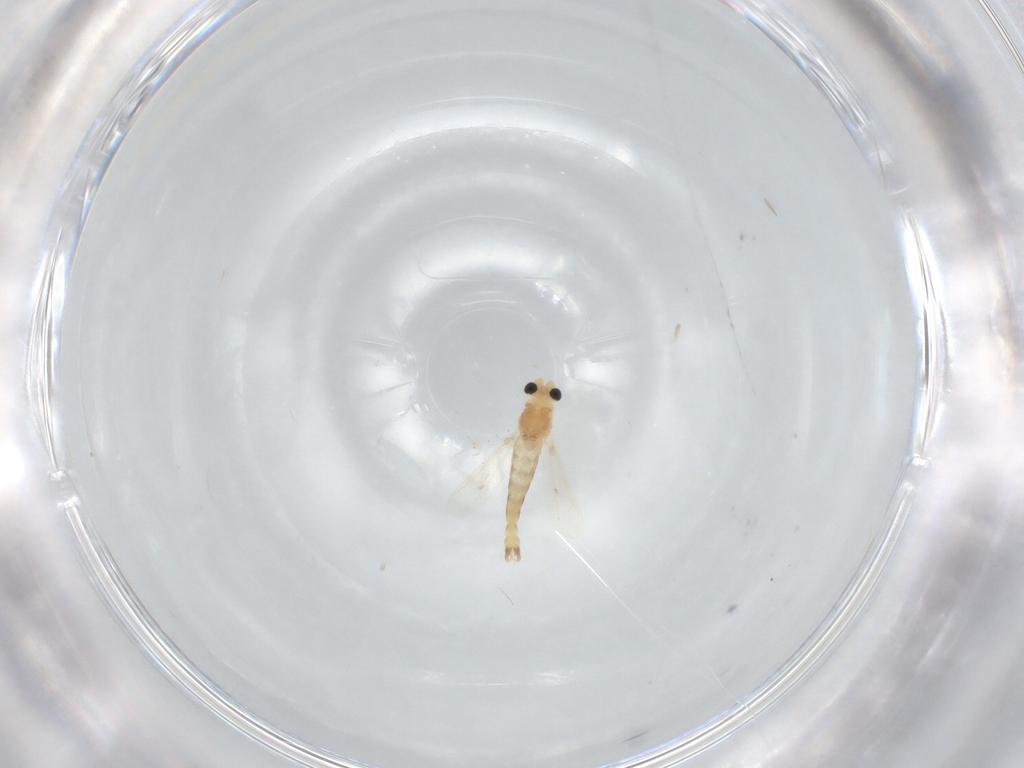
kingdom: Animalia
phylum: Arthropoda
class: Insecta
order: Diptera
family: Chironomidae
